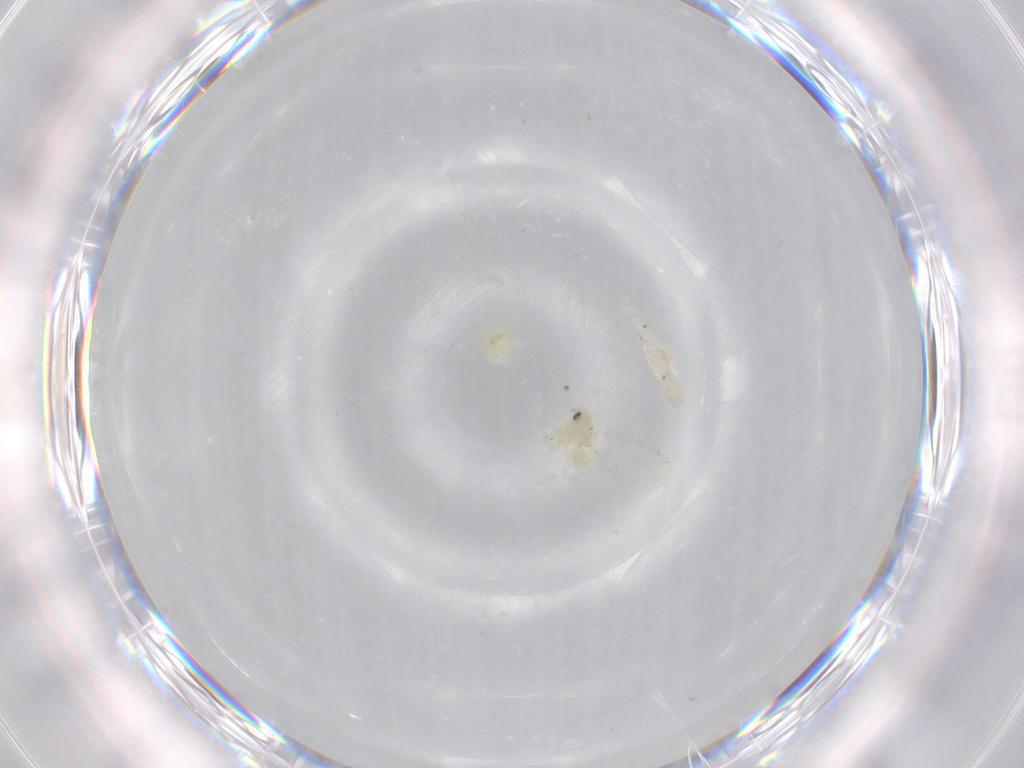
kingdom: Animalia
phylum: Arthropoda
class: Insecta
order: Hemiptera
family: Aleyrodidae
